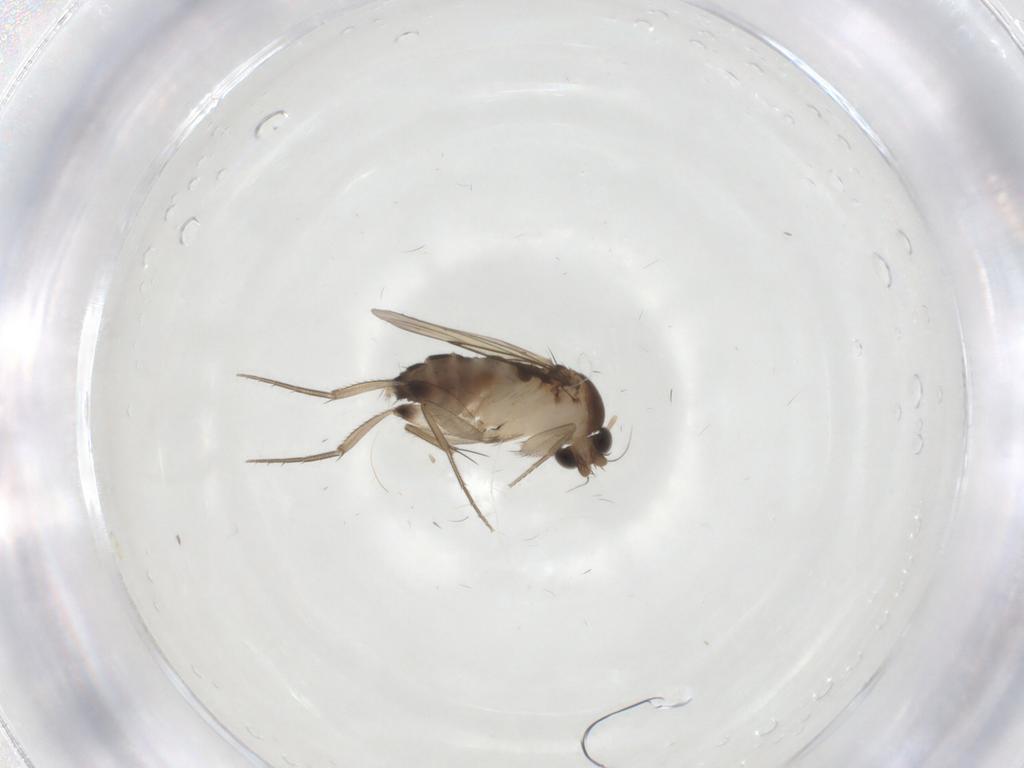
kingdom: Animalia
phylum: Arthropoda
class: Insecta
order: Diptera
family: Phoridae
